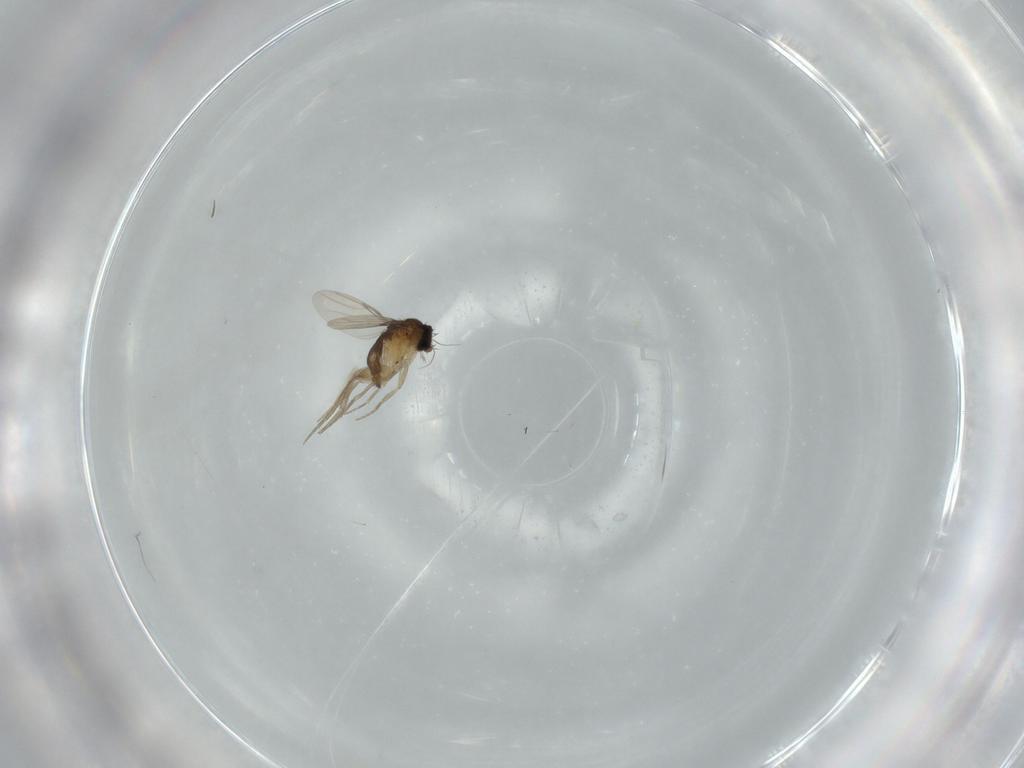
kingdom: Animalia
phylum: Arthropoda
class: Insecta
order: Diptera
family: Phoridae
